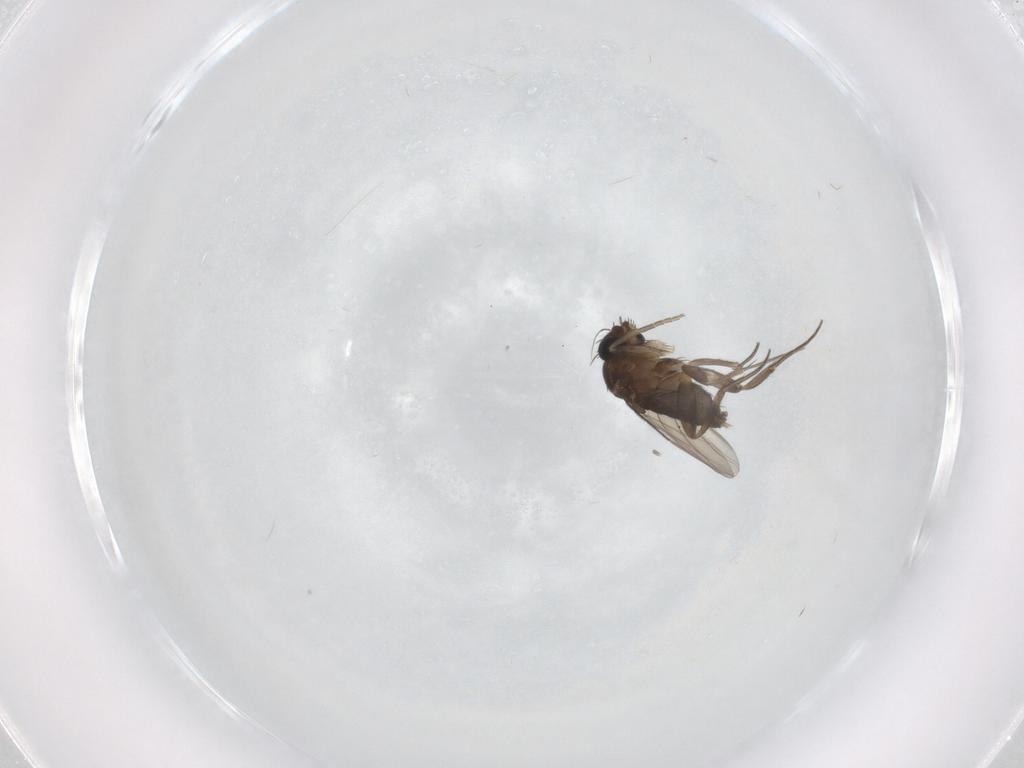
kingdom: Animalia
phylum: Arthropoda
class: Insecta
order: Diptera
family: Phoridae
